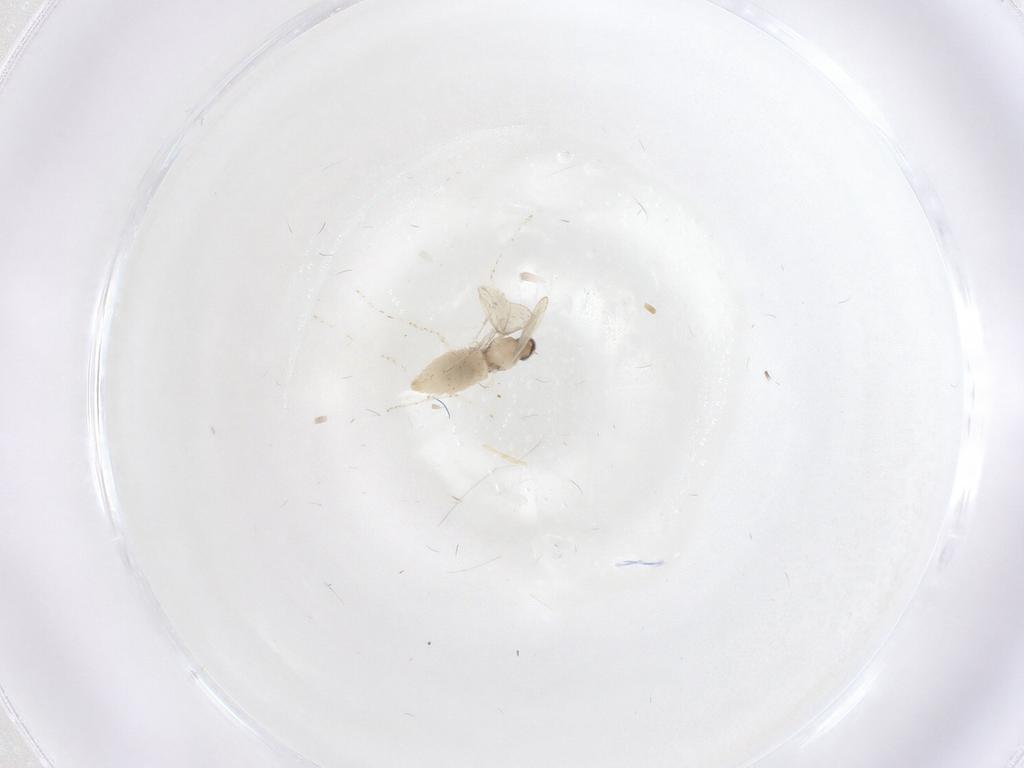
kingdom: Animalia
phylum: Arthropoda
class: Insecta
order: Diptera
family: Cecidomyiidae
